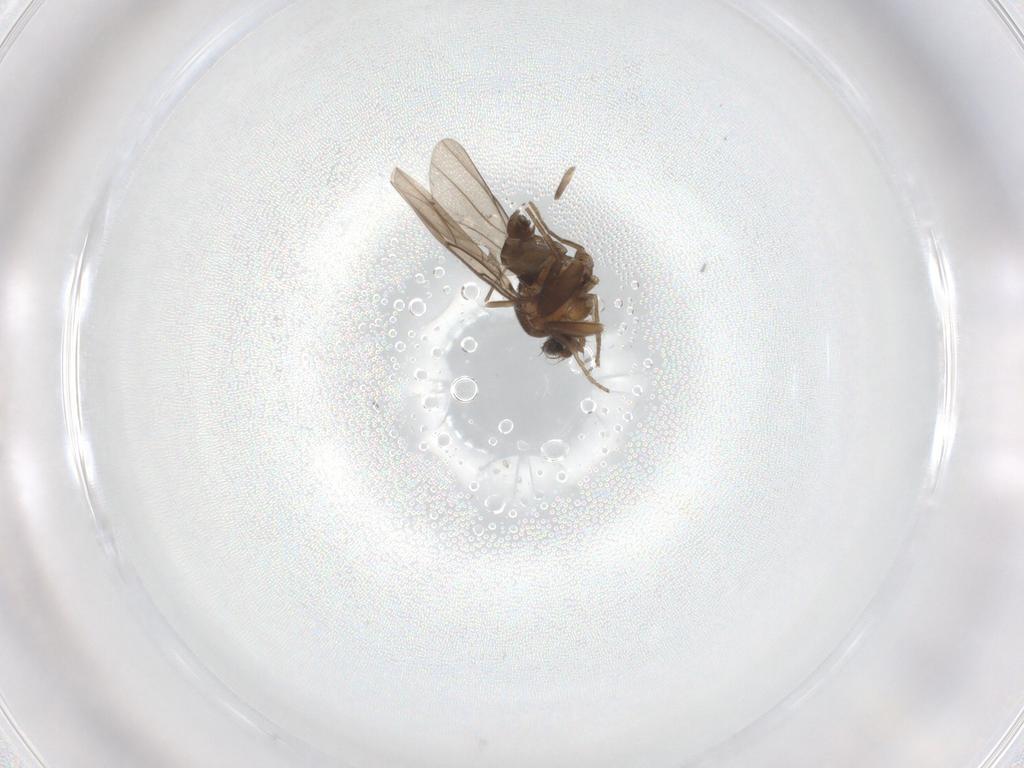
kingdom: Animalia
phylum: Arthropoda
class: Insecta
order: Diptera
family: Phoridae
